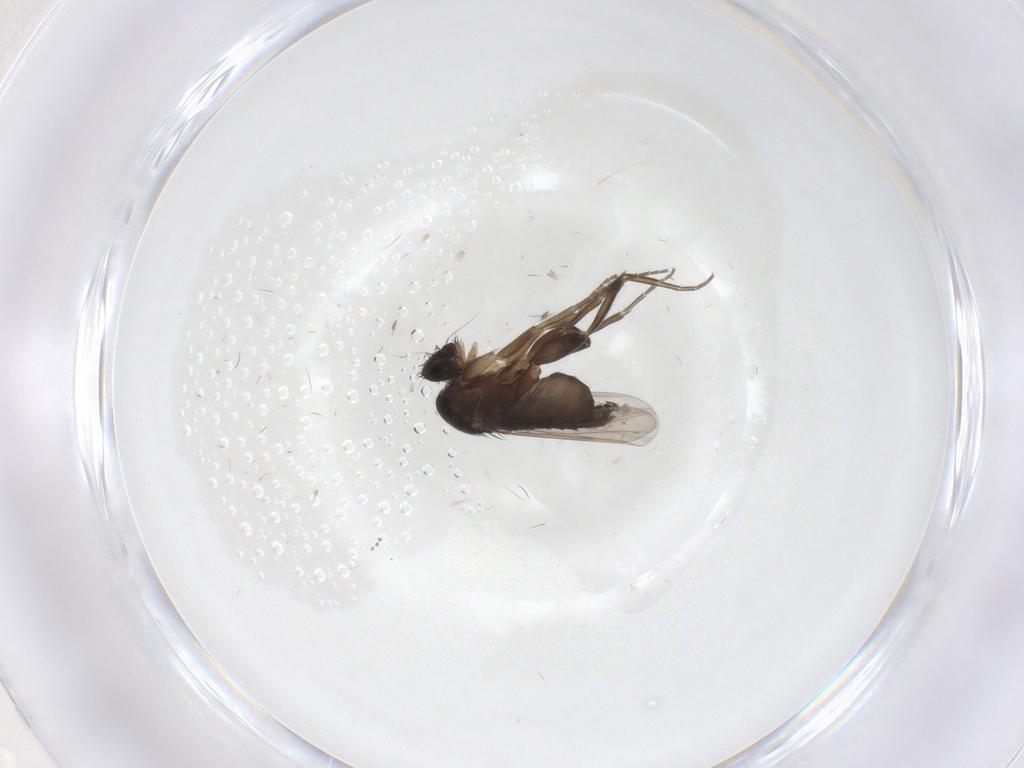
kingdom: Animalia
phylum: Arthropoda
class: Insecta
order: Diptera
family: Phoridae
